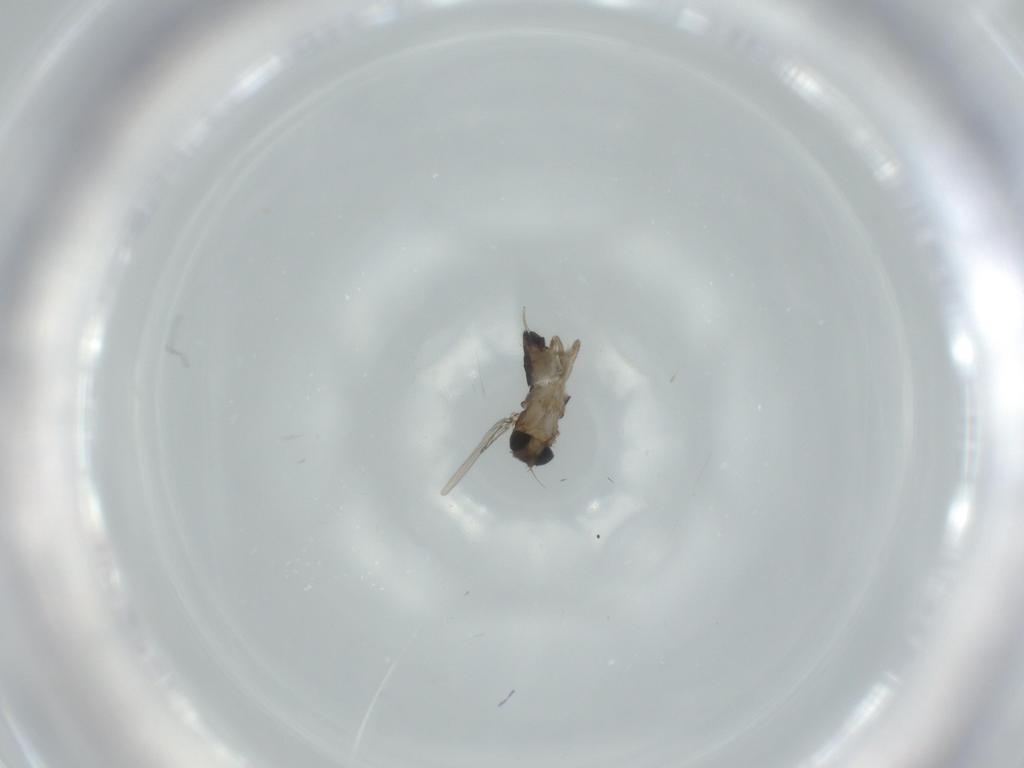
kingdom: Animalia
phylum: Arthropoda
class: Insecta
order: Diptera
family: Phoridae
